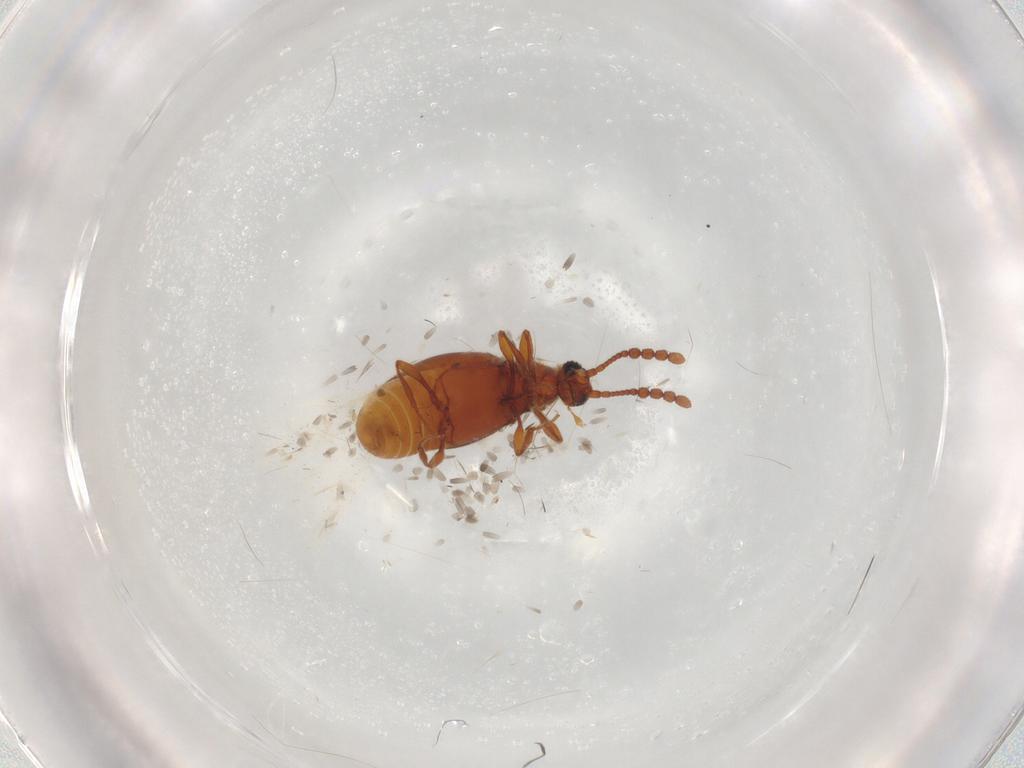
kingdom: Animalia
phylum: Arthropoda
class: Insecta
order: Coleoptera
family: Staphylinidae
